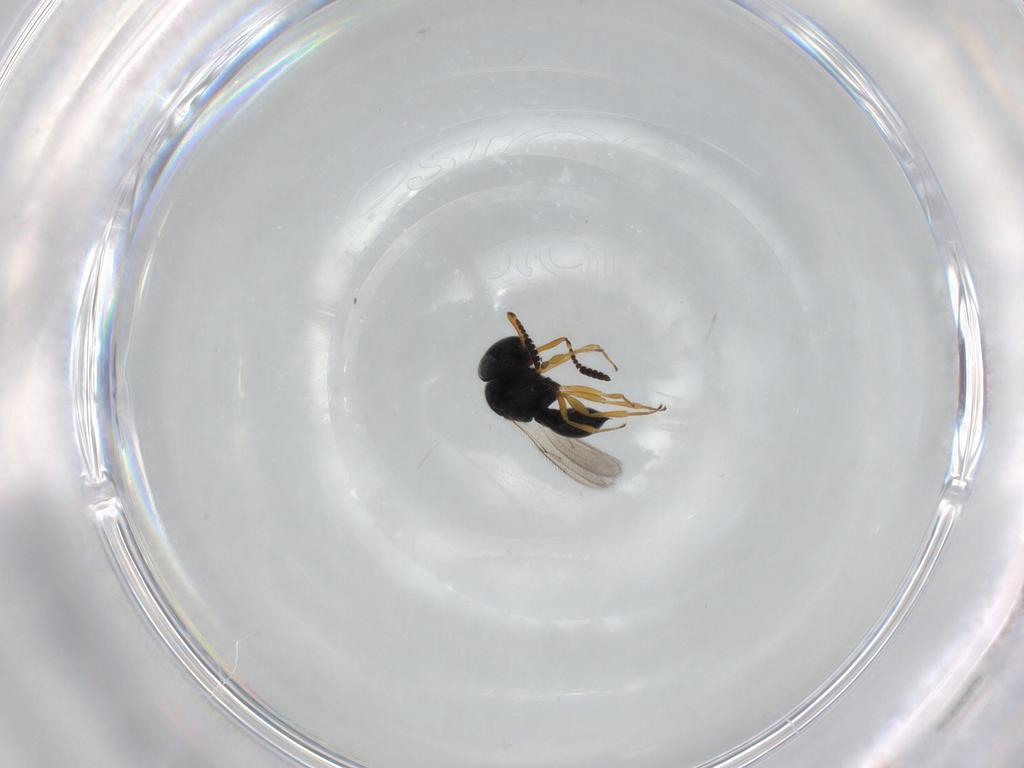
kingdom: Animalia
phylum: Arthropoda
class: Insecta
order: Hymenoptera
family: Scelionidae
